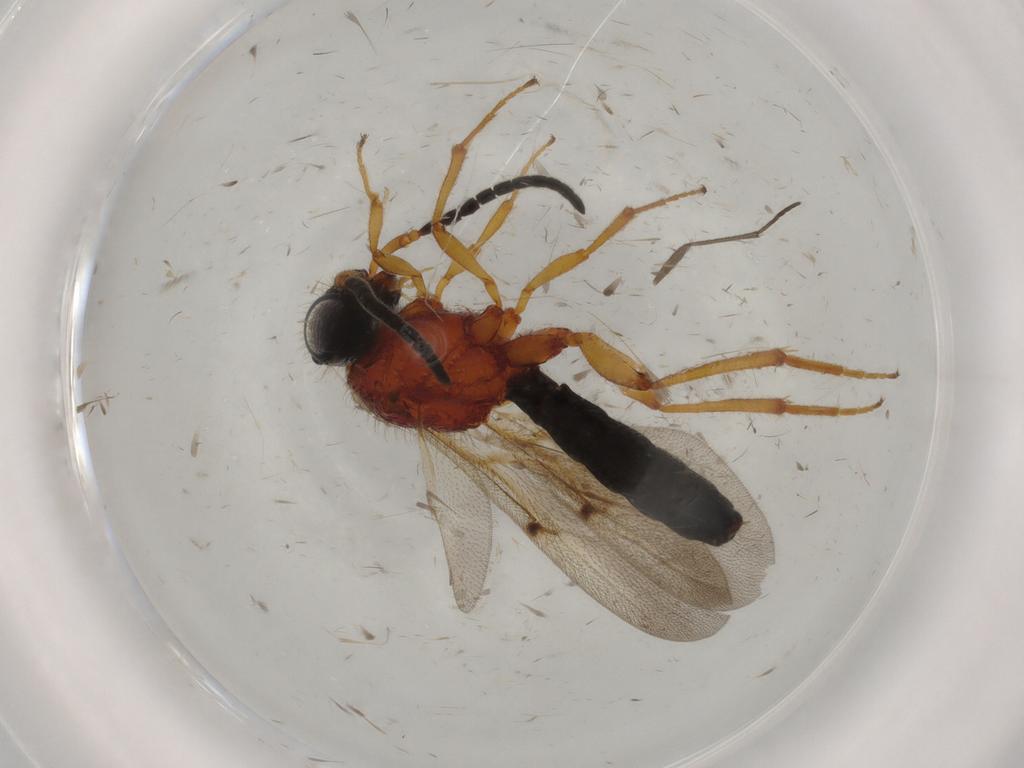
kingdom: Animalia
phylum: Arthropoda
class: Insecta
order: Hymenoptera
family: Scelionidae
